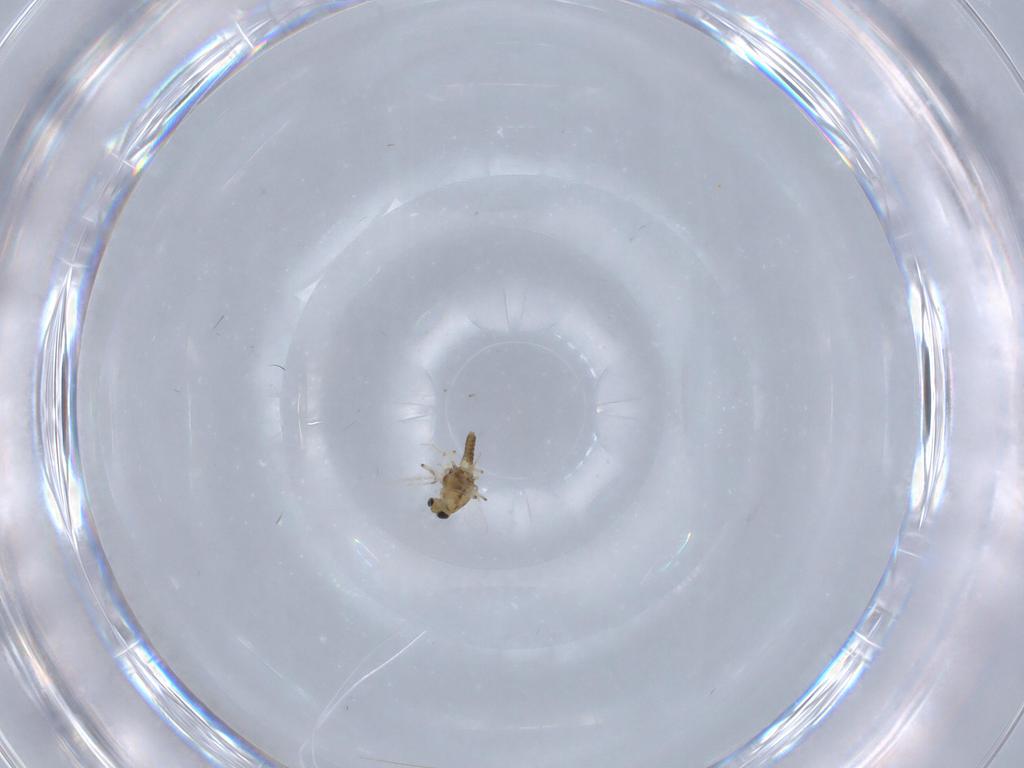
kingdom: Animalia
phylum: Arthropoda
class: Insecta
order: Diptera
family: Chironomidae
